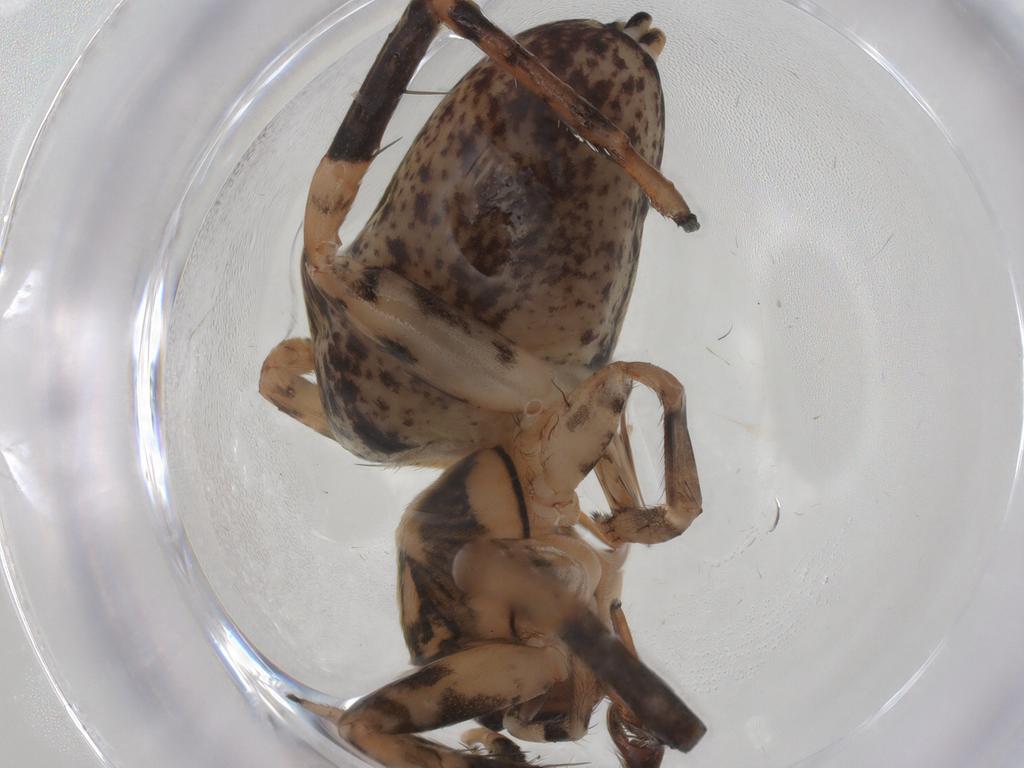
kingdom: Animalia
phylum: Arthropoda
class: Arachnida
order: Araneae
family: Anyphaenidae
